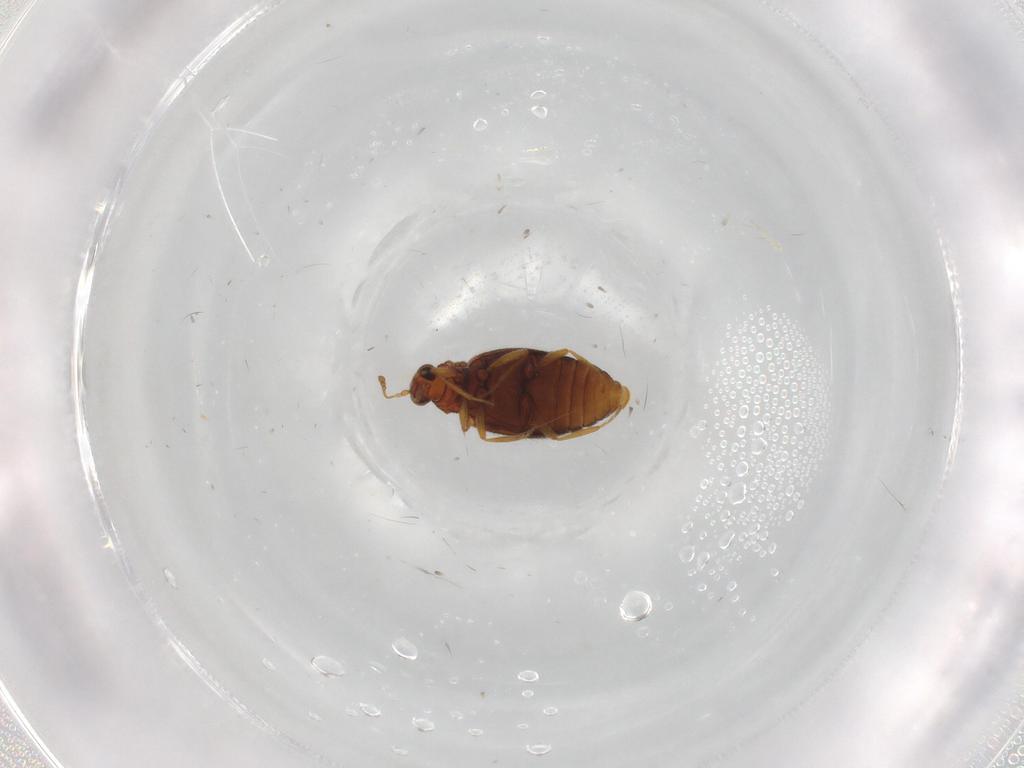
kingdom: Animalia
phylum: Arthropoda
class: Insecta
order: Coleoptera
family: Latridiidae
